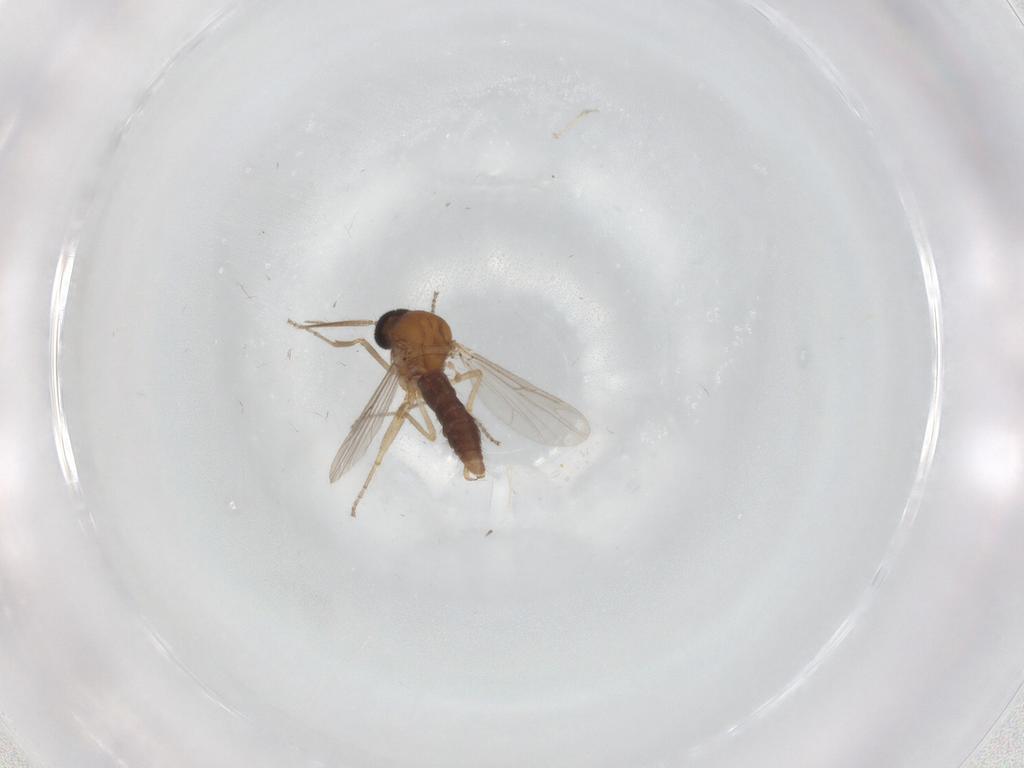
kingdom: Animalia
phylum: Arthropoda
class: Insecta
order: Diptera
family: Ceratopogonidae
